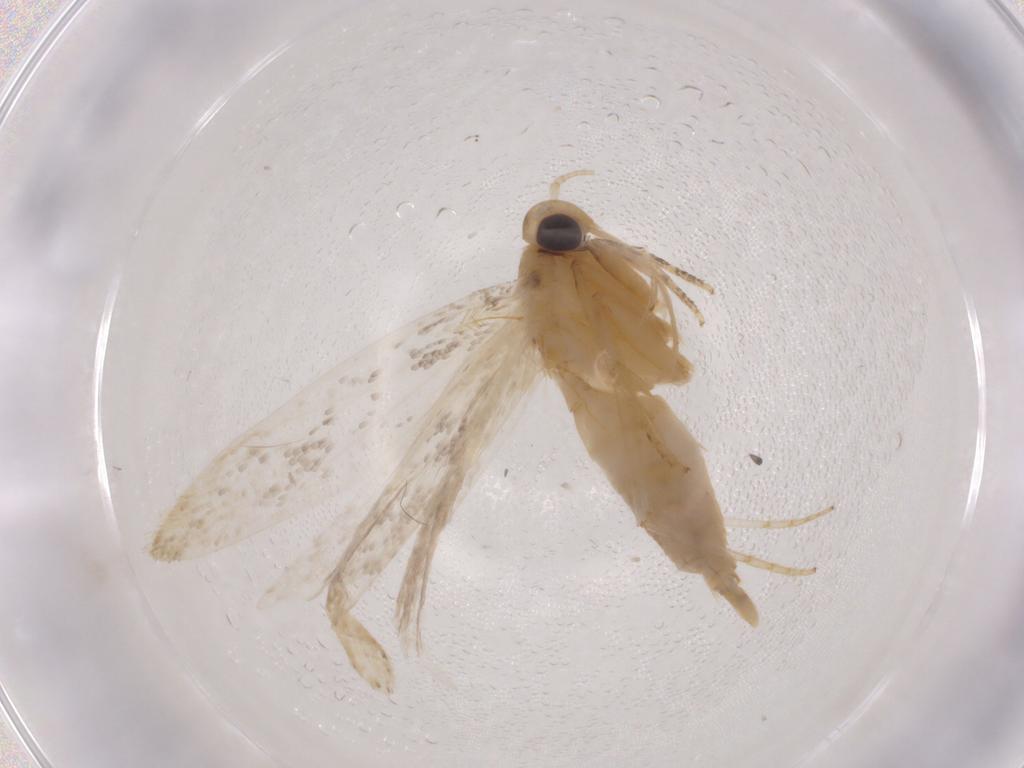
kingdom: Animalia
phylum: Arthropoda
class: Insecta
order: Lepidoptera
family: Autostichidae
